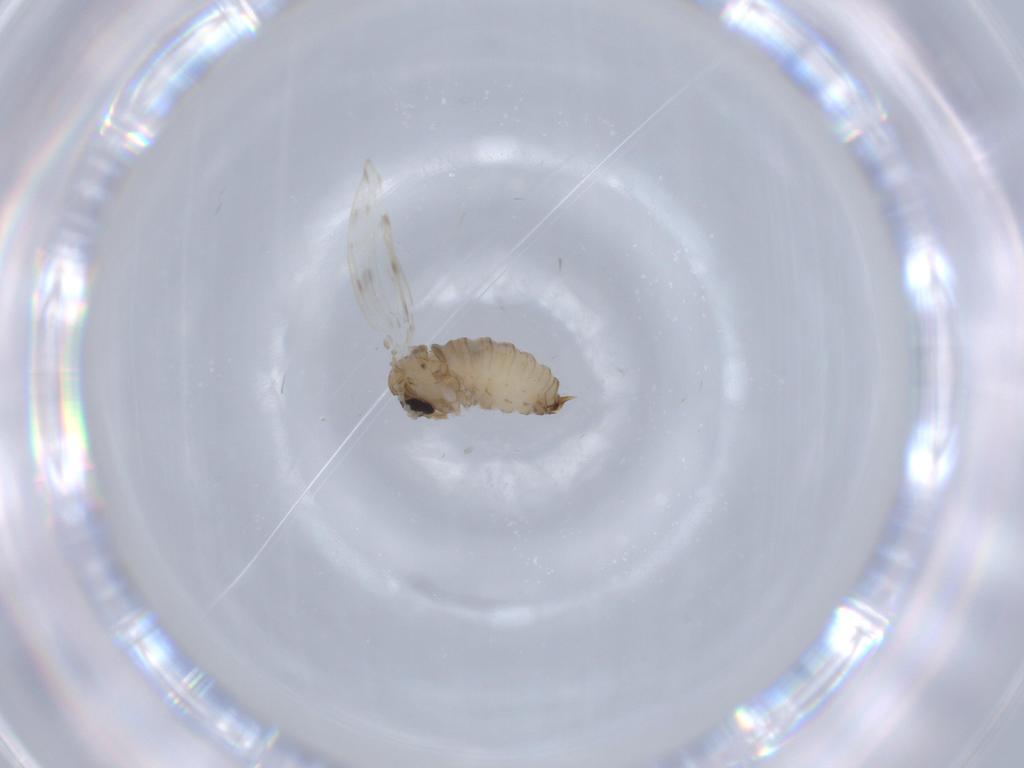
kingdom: Animalia
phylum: Arthropoda
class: Insecta
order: Diptera
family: Psychodidae
